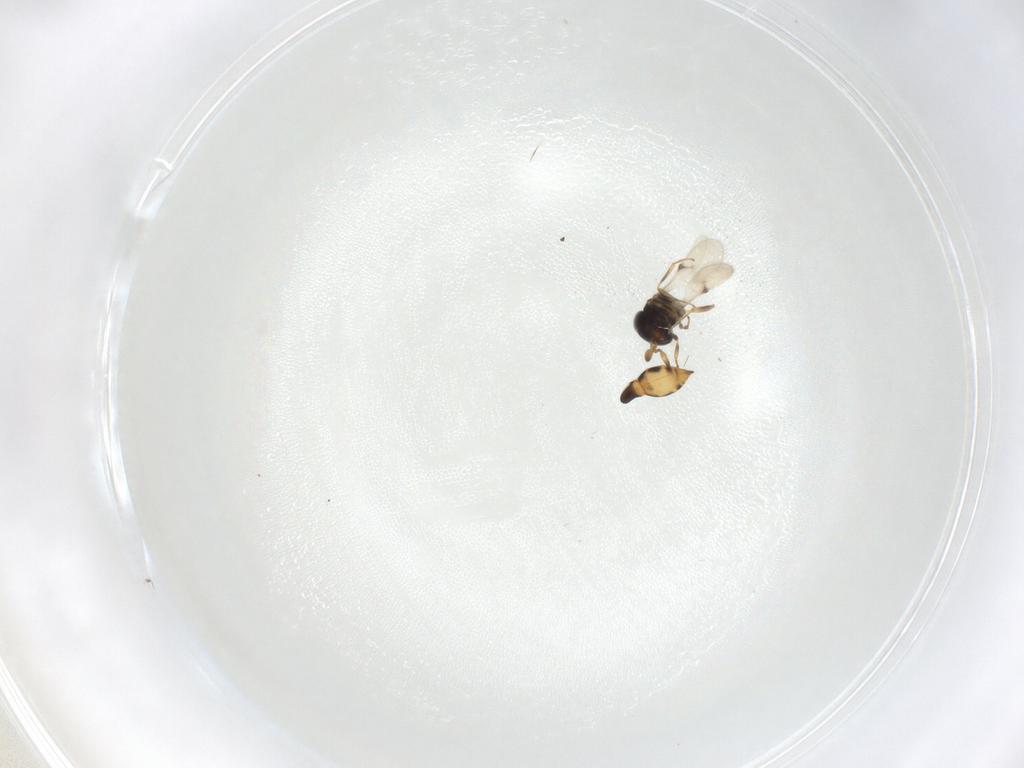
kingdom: Animalia
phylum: Arthropoda
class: Insecta
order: Hymenoptera
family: Scelionidae
